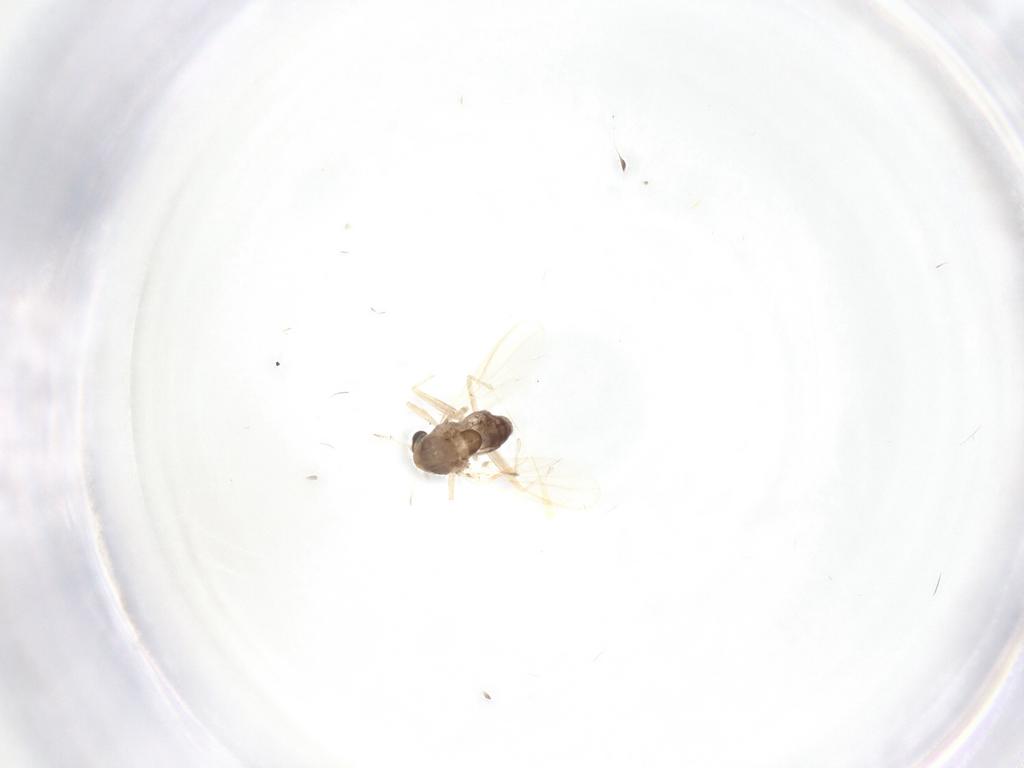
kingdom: Animalia
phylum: Arthropoda
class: Insecta
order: Diptera
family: Chironomidae
